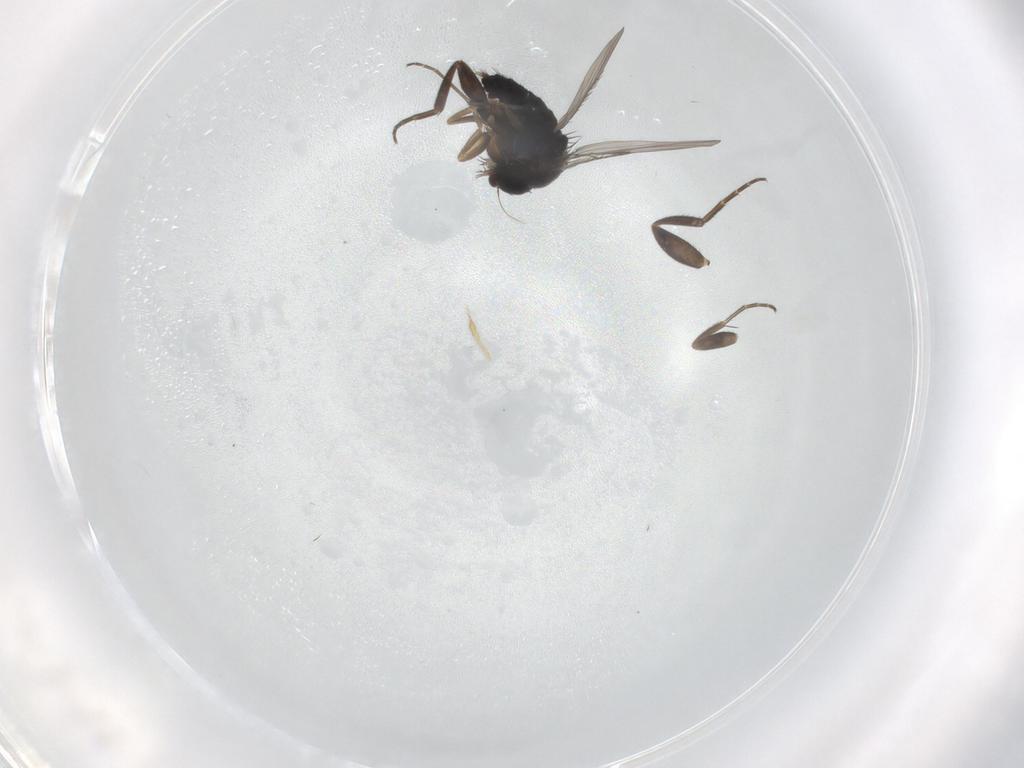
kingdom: Animalia
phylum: Arthropoda
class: Insecta
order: Diptera
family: Phoridae
